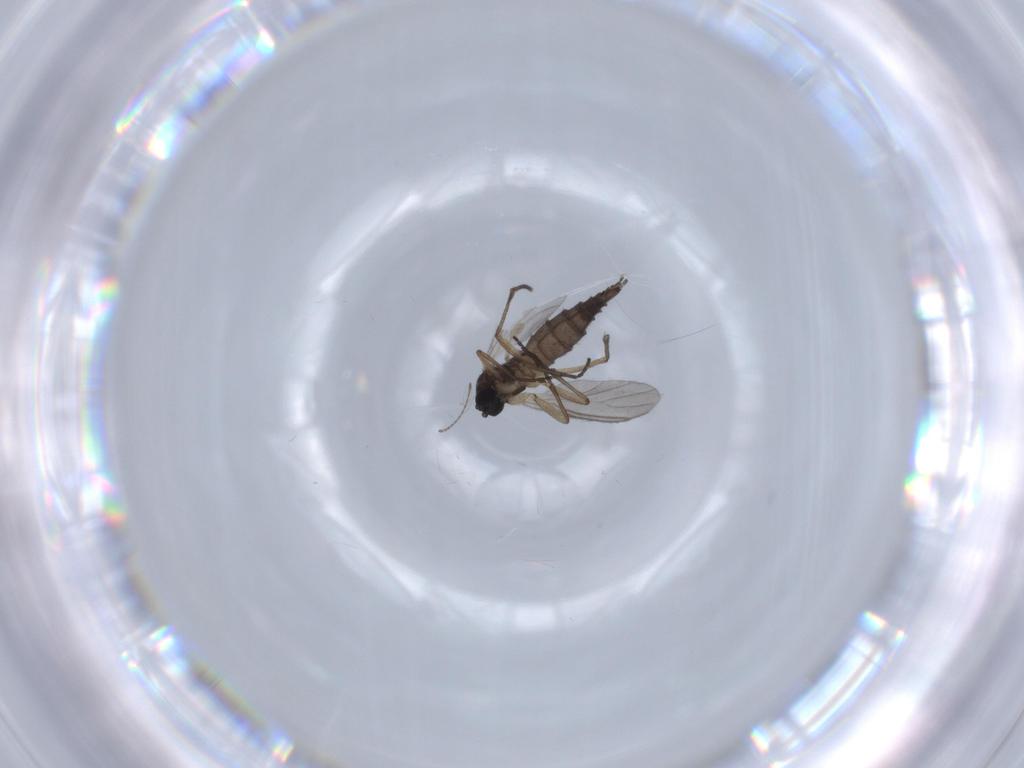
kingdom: Animalia
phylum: Arthropoda
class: Insecta
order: Diptera
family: Sciaridae
